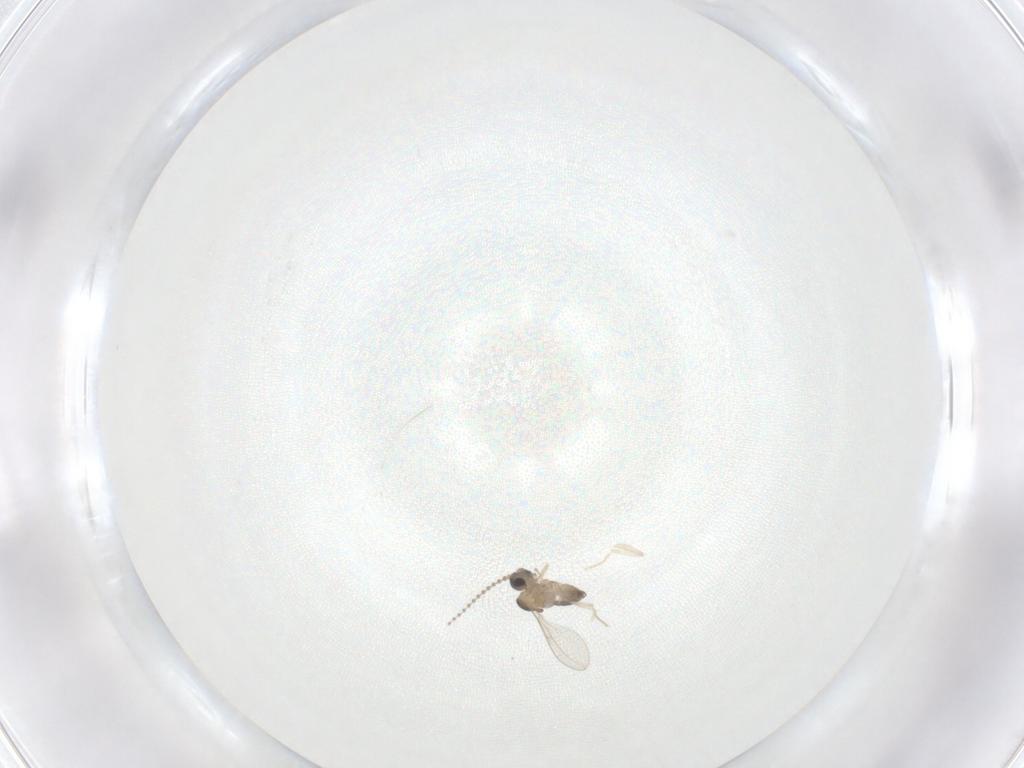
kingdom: Animalia
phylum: Arthropoda
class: Insecta
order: Diptera
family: Cecidomyiidae
